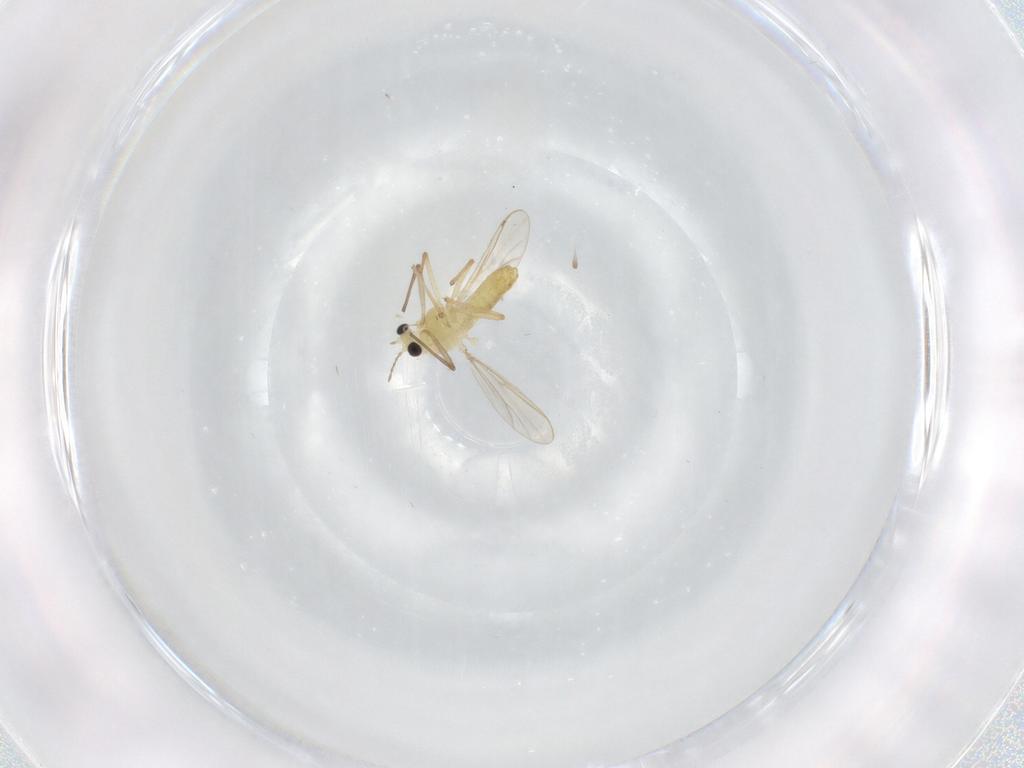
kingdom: Animalia
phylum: Arthropoda
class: Insecta
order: Diptera
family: Chironomidae
